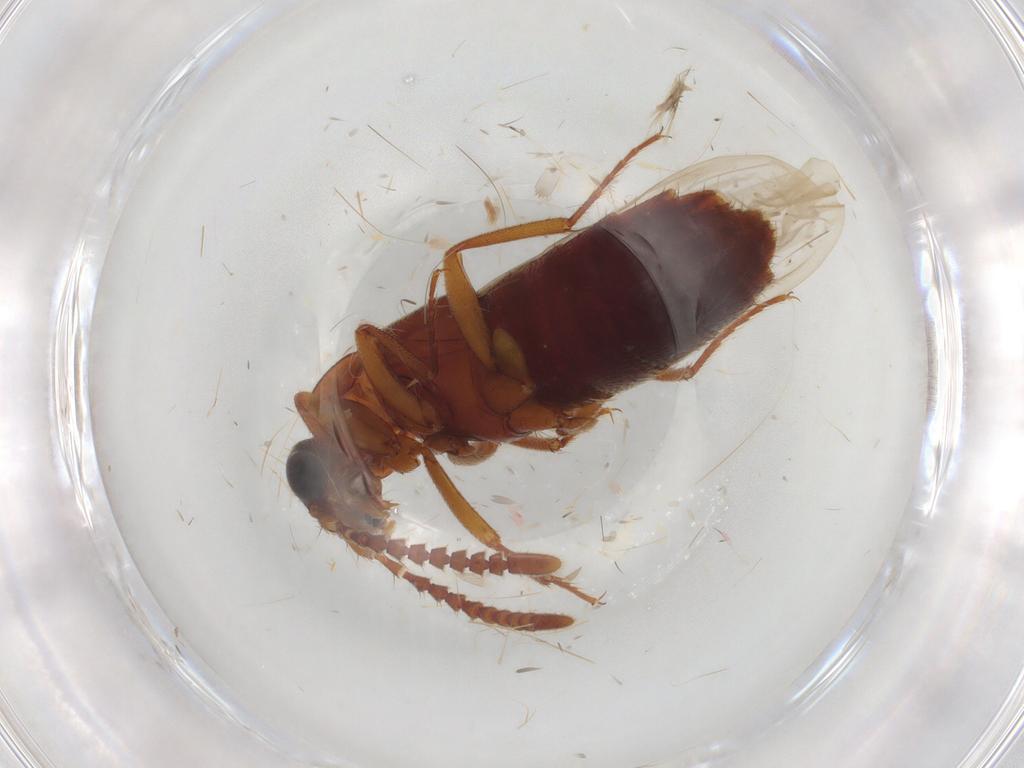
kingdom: Animalia
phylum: Arthropoda
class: Insecta
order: Coleoptera
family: Staphylinidae
